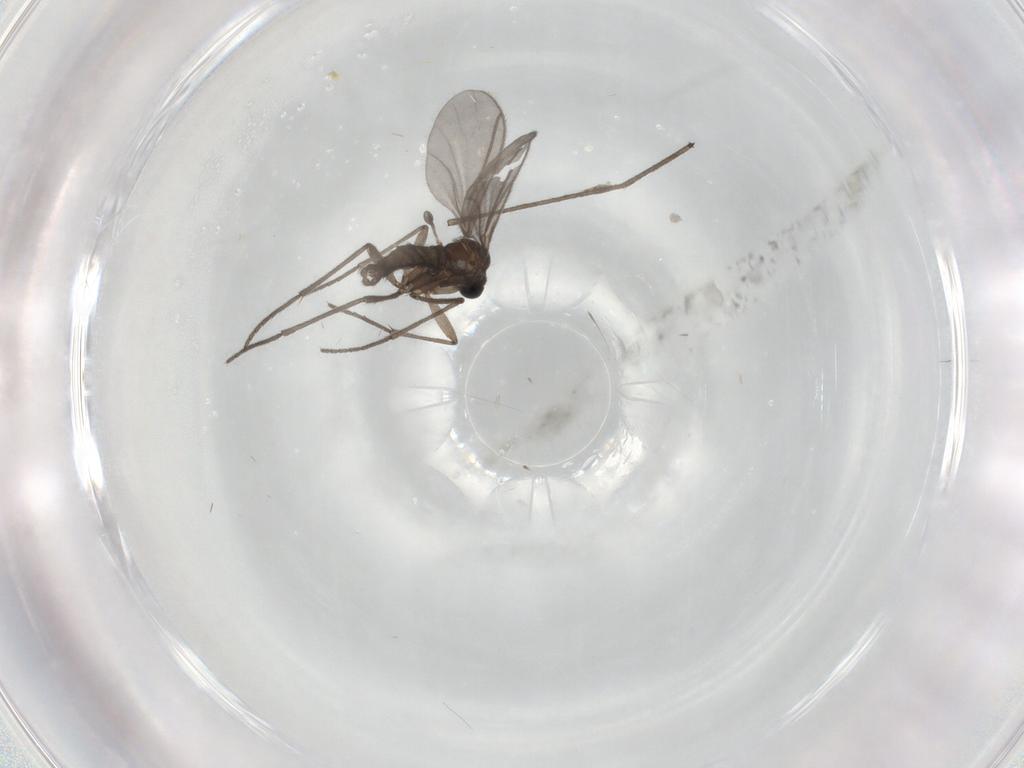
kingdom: Animalia
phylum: Arthropoda
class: Insecta
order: Diptera
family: Sciaridae
